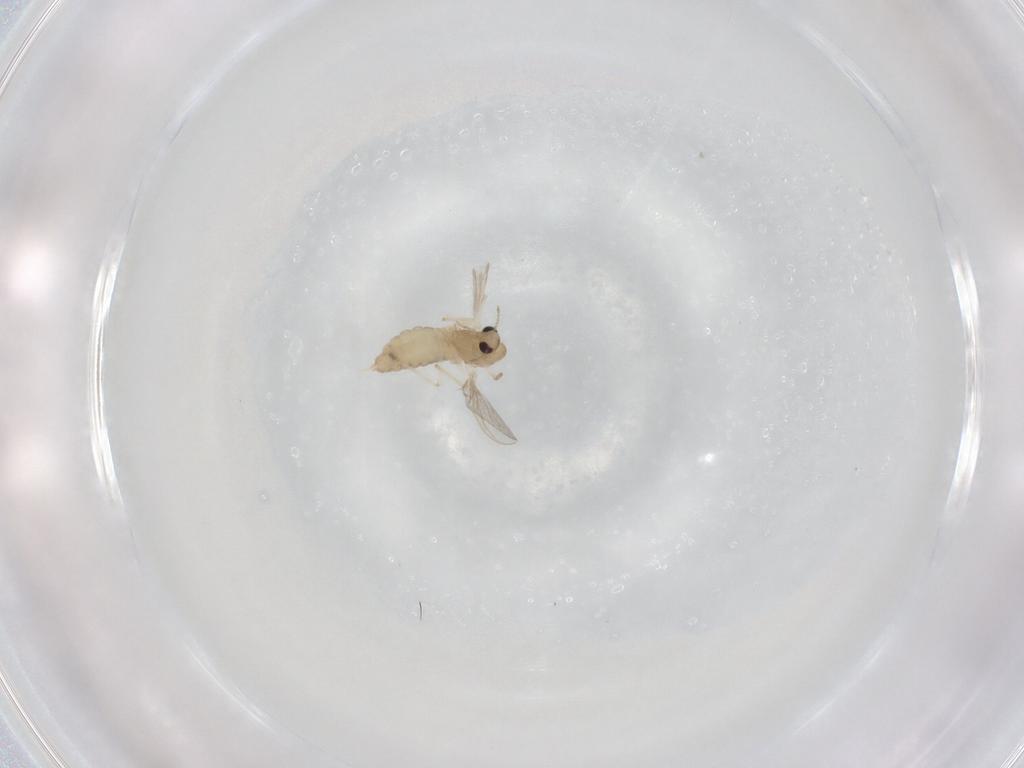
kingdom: Animalia
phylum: Arthropoda
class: Insecta
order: Diptera
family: Chironomidae
